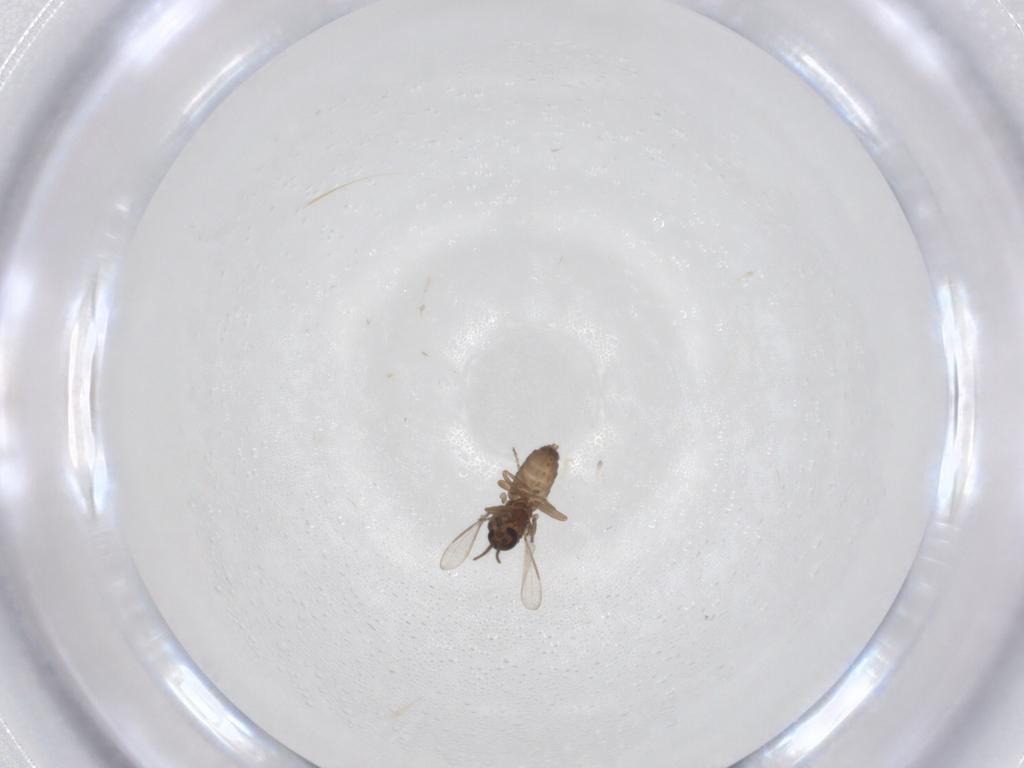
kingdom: Animalia
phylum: Arthropoda
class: Insecta
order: Diptera
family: Ceratopogonidae
